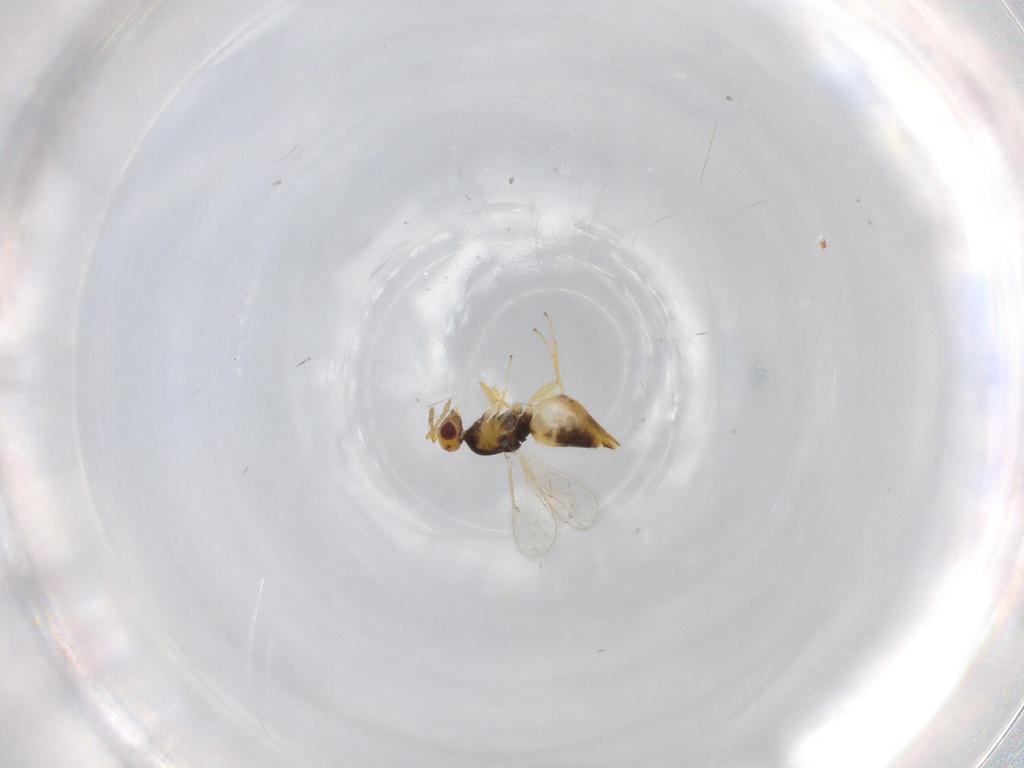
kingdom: Animalia
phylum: Arthropoda
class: Insecta
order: Hymenoptera
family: Eulophidae
